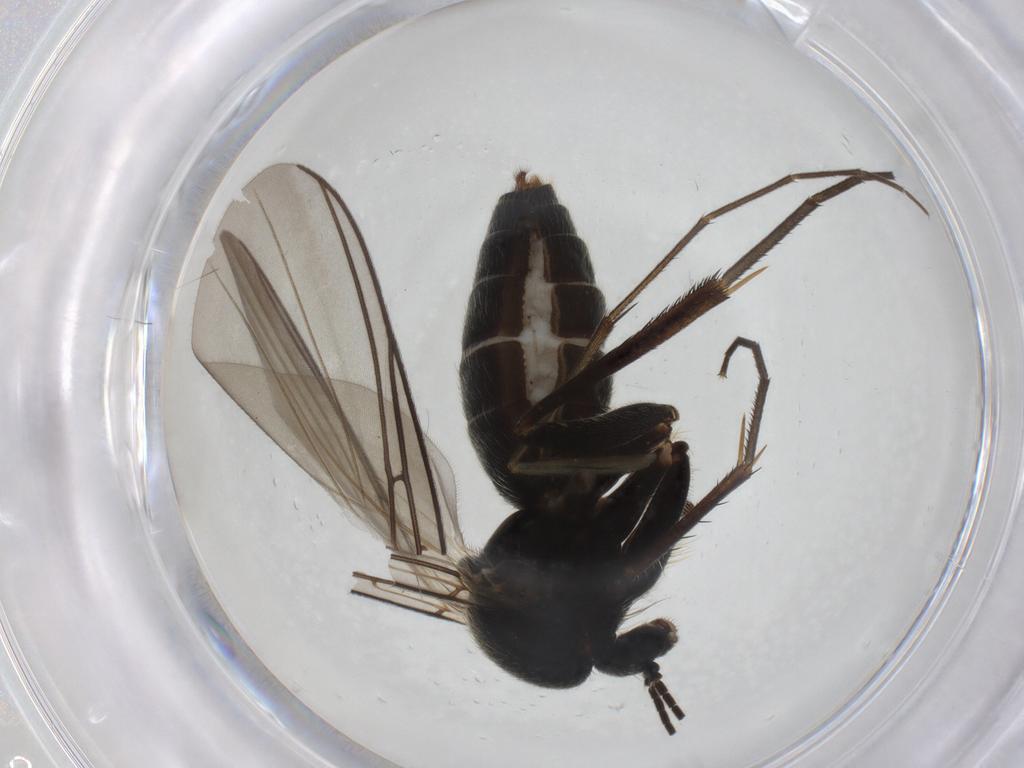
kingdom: Animalia
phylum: Arthropoda
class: Insecta
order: Diptera
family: Mycetophilidae
